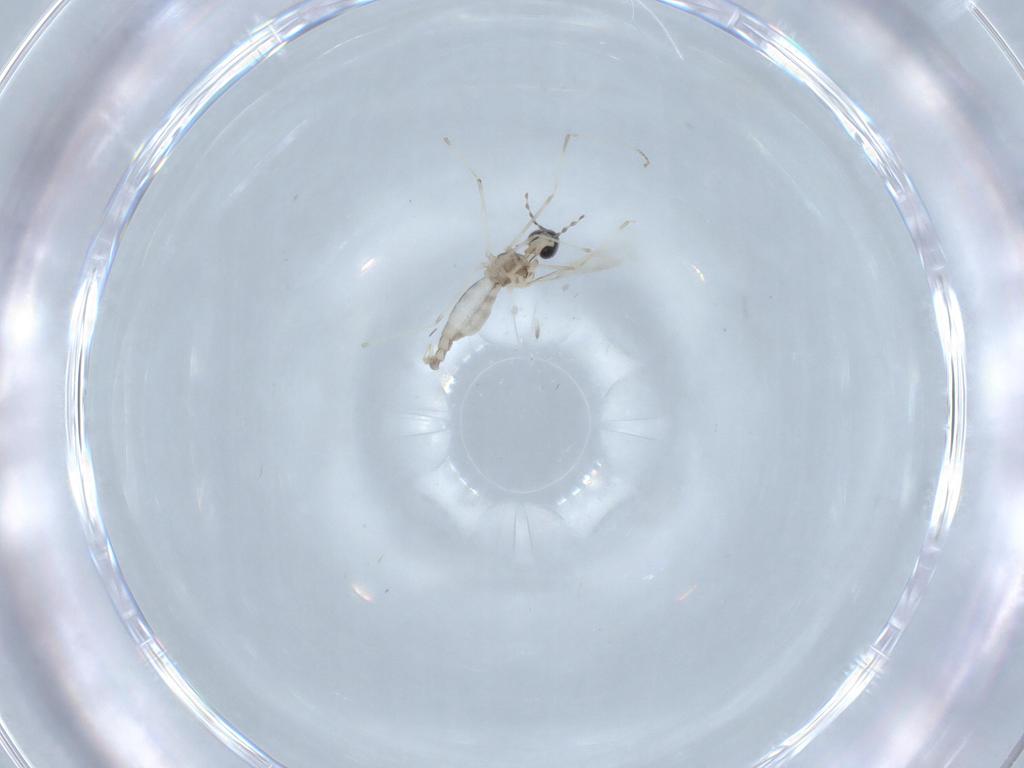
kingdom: Animalia
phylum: Arthropoda
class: Insecta
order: Diptera
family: Cecidomyiidae
